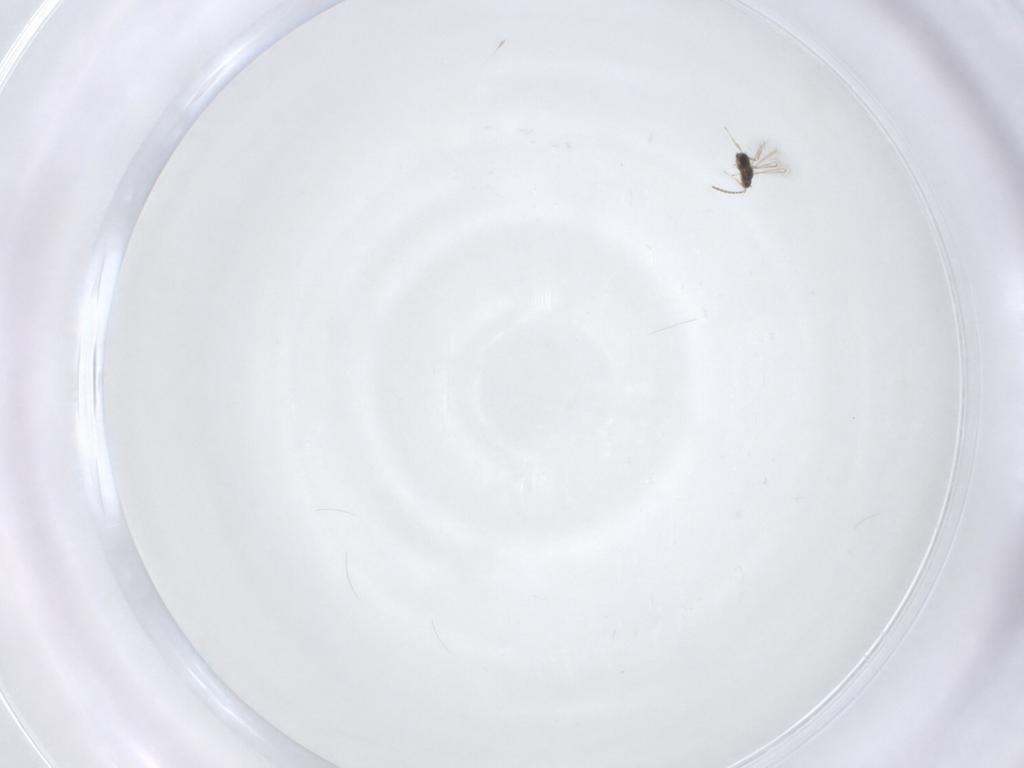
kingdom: Animalia
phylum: Arthropoda
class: Insecta
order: Hymenoptera
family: Mymaridae
